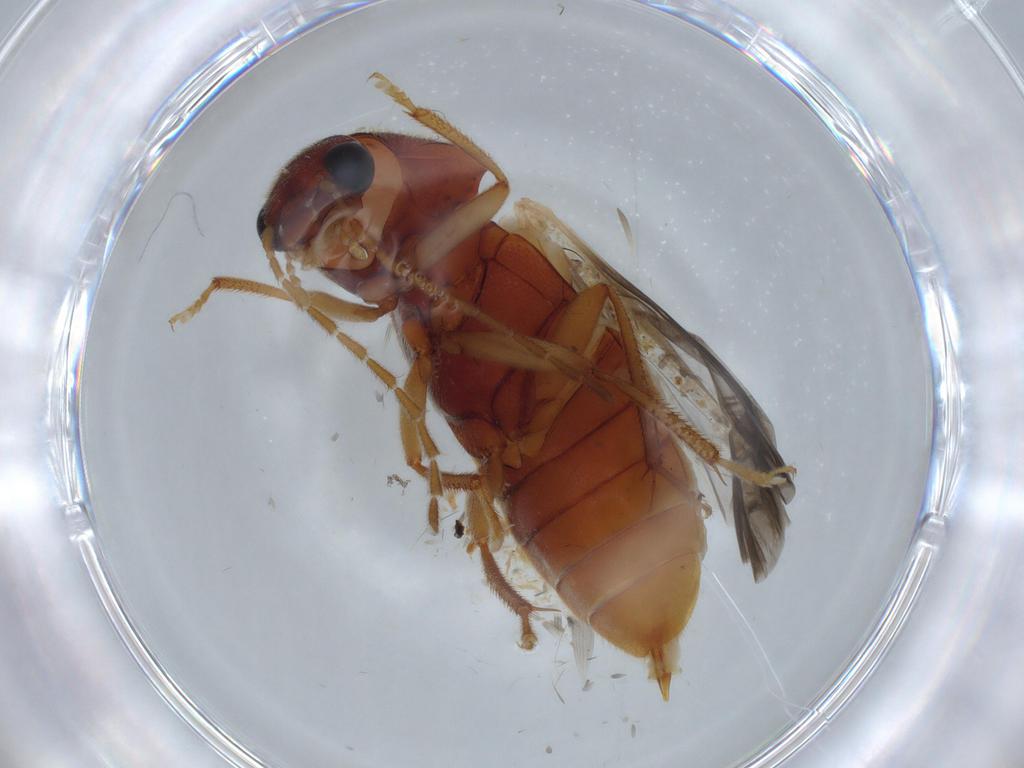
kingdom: Animalia
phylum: Arthropoda
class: Insecta
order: Coleoptera
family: Ptilodactylidae
